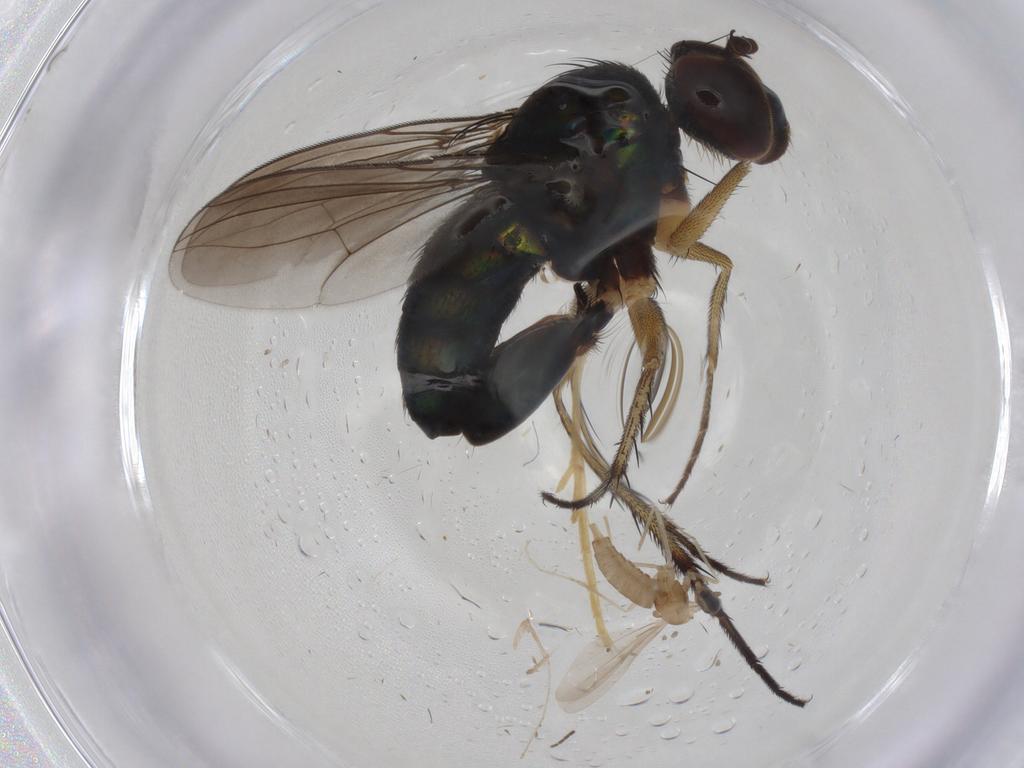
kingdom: Animalia
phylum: Arthropoda
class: Insecta
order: Diptera
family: Dolichopodidae
